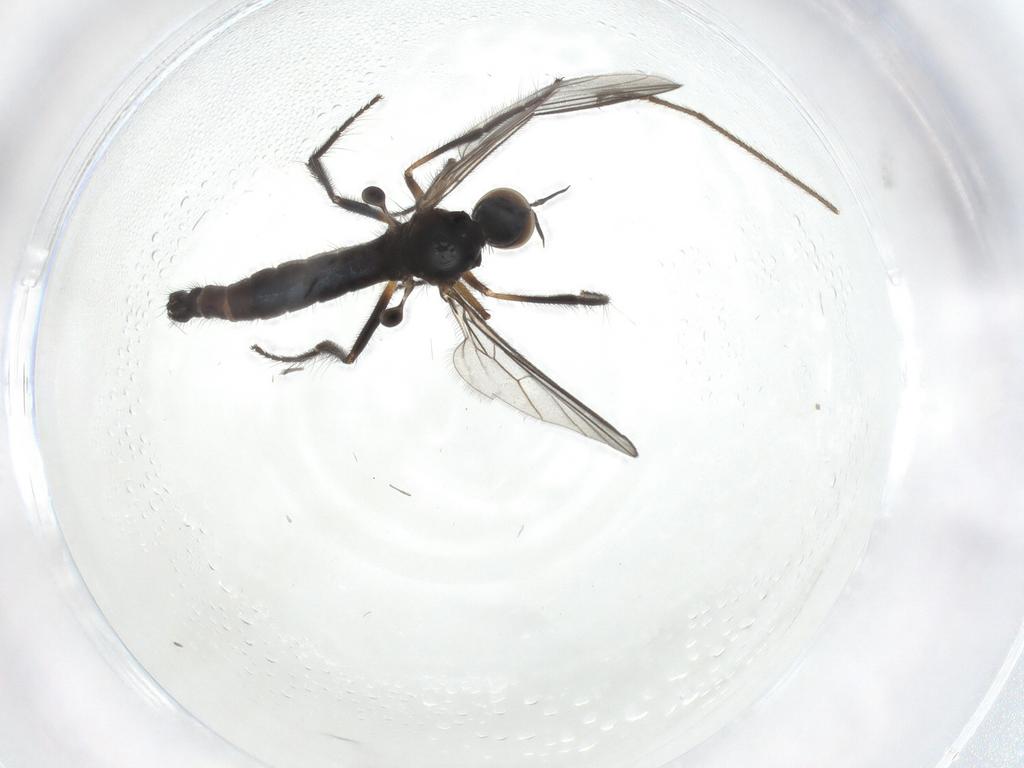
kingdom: Animalia
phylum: Arthropoda
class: Insecta
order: Diptera
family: Empididae
